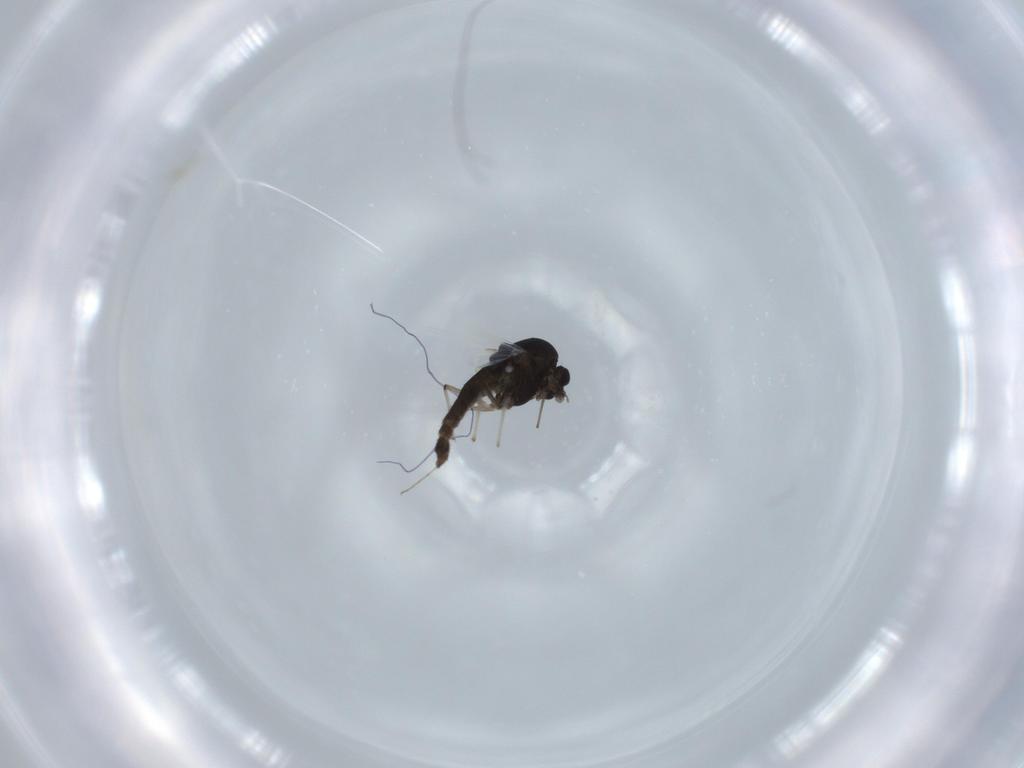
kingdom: Animalia
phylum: Arthropoda
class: Insecta
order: Diptera
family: Chironomidae
